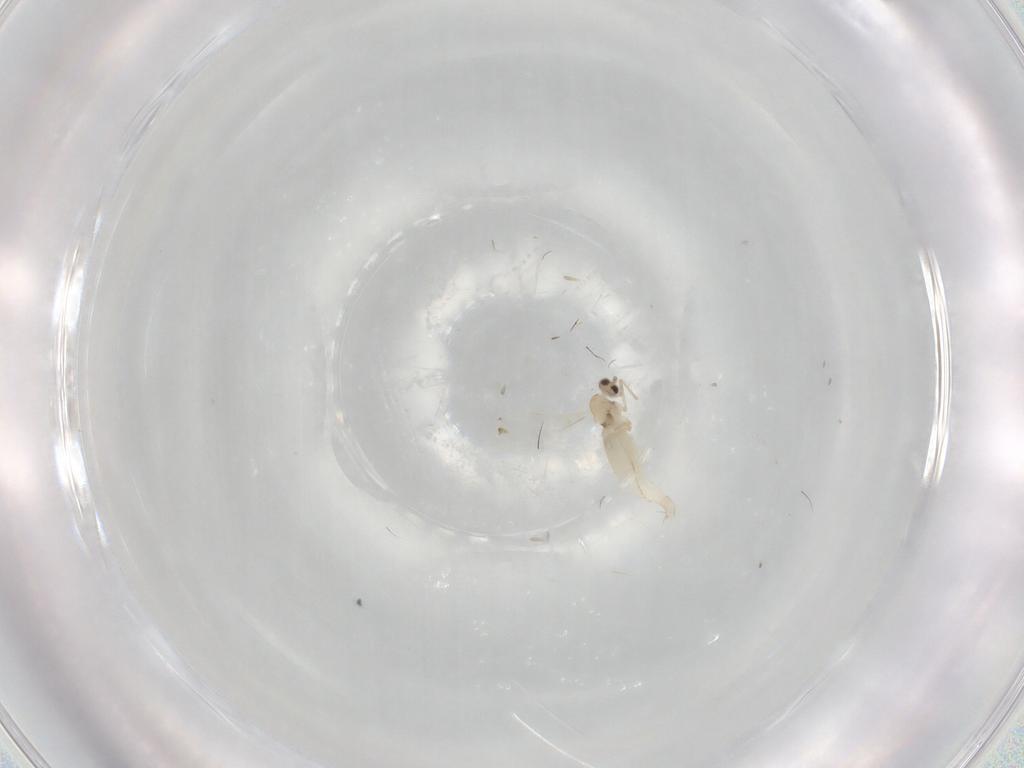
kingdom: Animalia
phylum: Arthropoda
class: Insecta
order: Diptera
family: Cecidomyiidae
